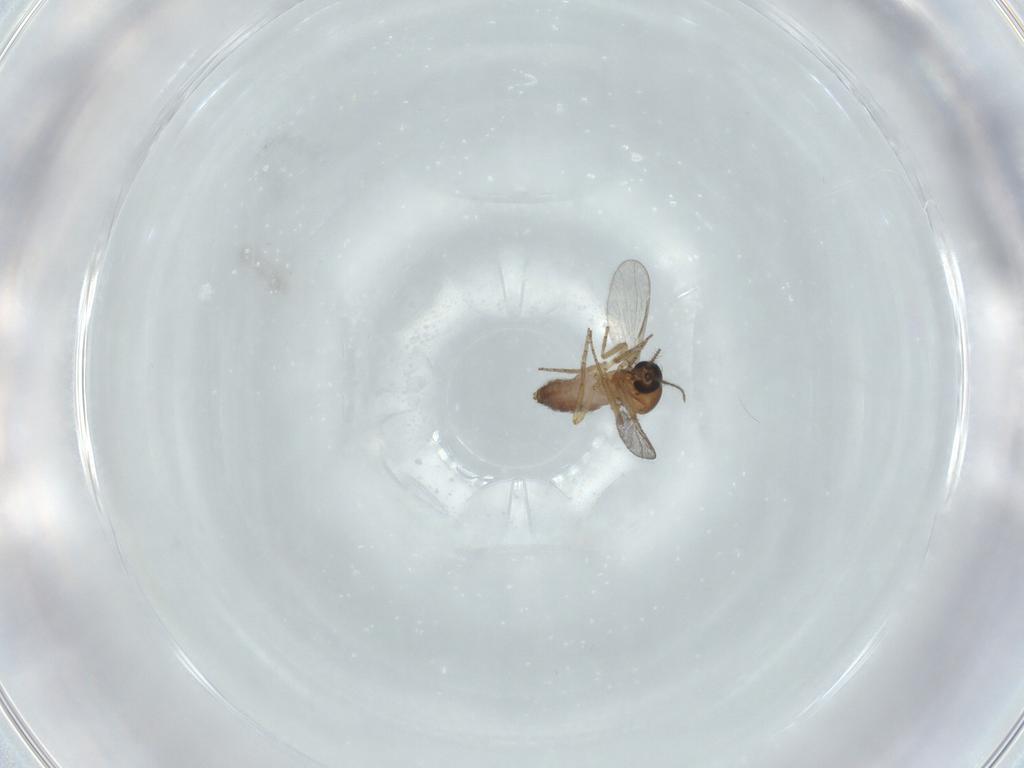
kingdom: Animalia
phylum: Arthropoda
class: Insecta
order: Diptera
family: Ceratopogonidae
